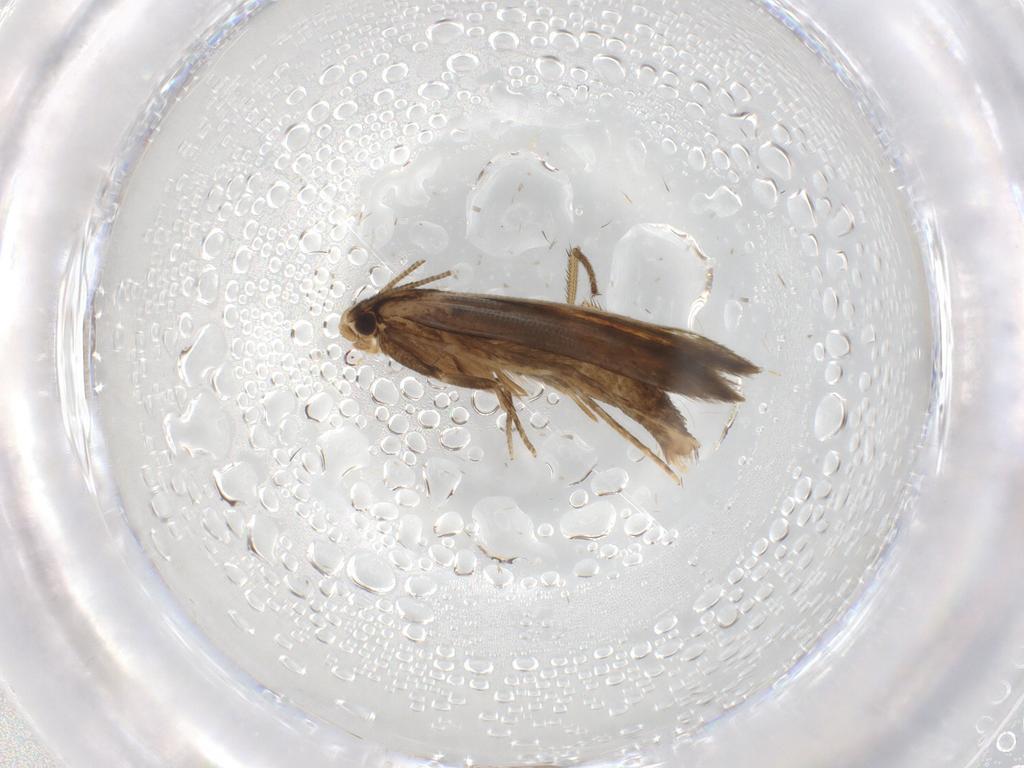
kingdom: Animalia
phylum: Arthropoda
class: Insecta
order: Lepidoptera
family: Tineidae
